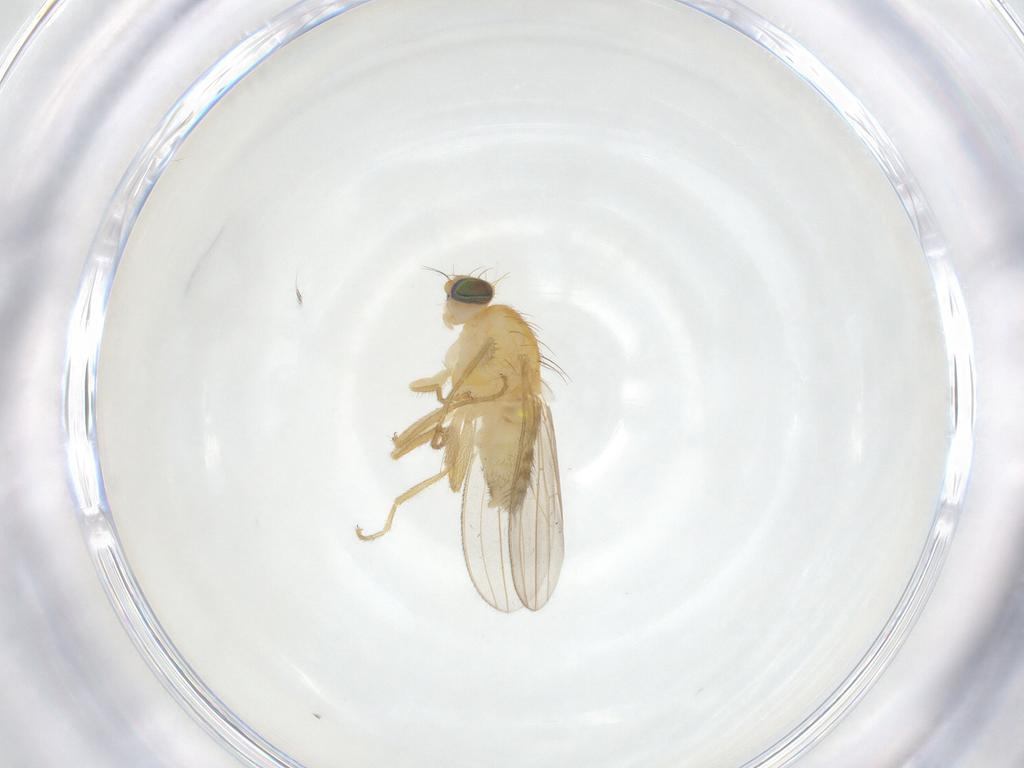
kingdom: Animalia
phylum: Arthropoda
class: Insecta
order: Diptera
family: Chyromyidae
